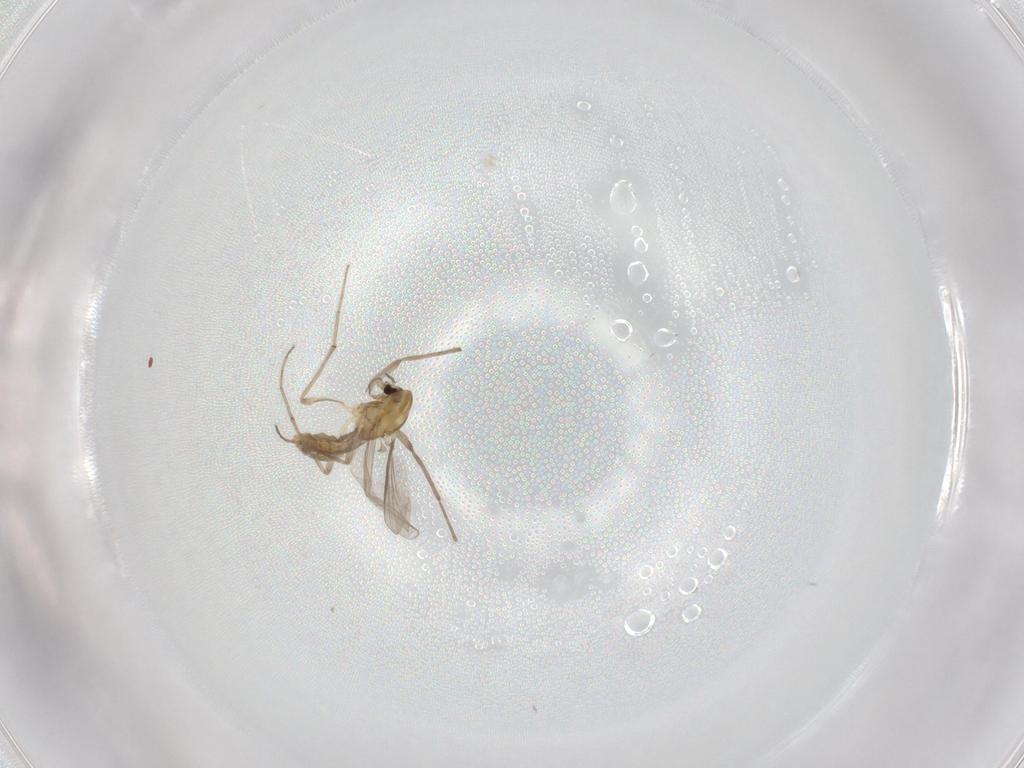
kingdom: Animalia
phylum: Arthropoda
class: Insecta
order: Diptera
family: Chironomidae
